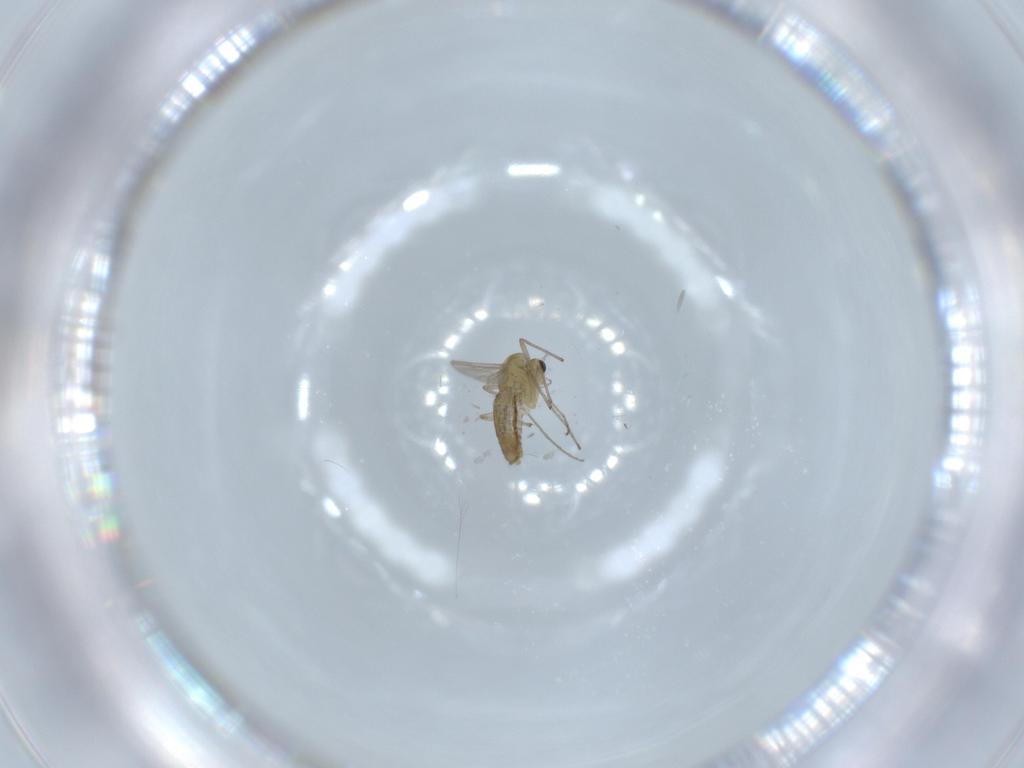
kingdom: Animalia
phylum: Arthropoda
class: Insecta
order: Diptera
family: Chironomidae
